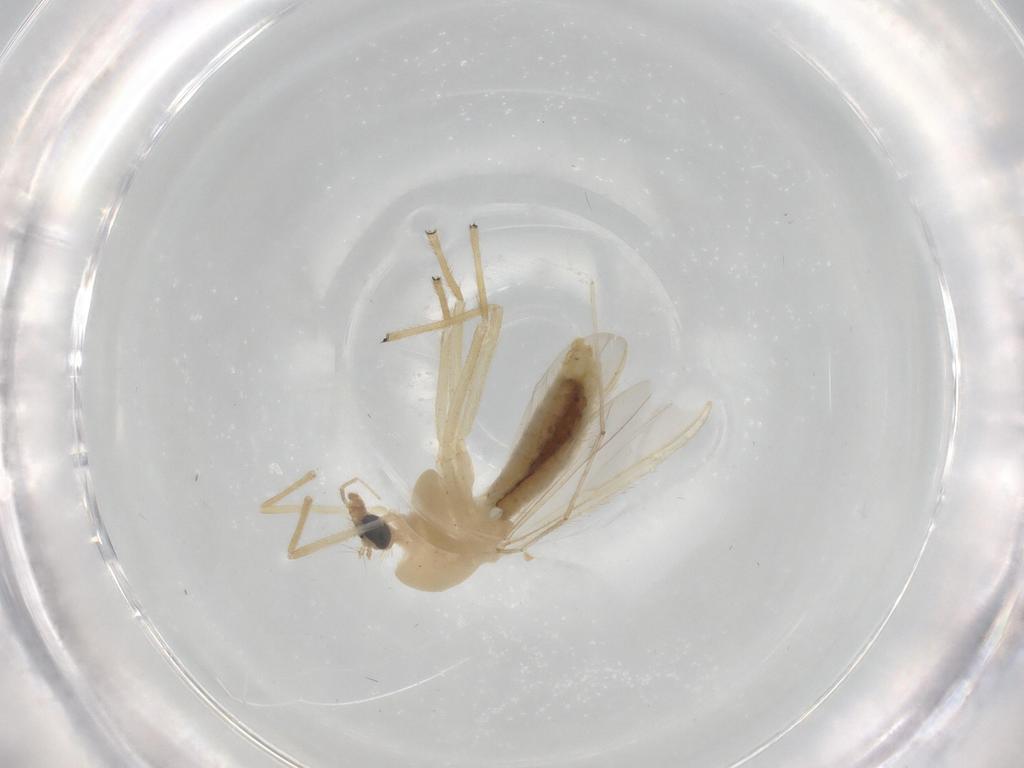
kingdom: Animalia
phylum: Arthropoda
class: Insecta
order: Diptera
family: Chironomidae
